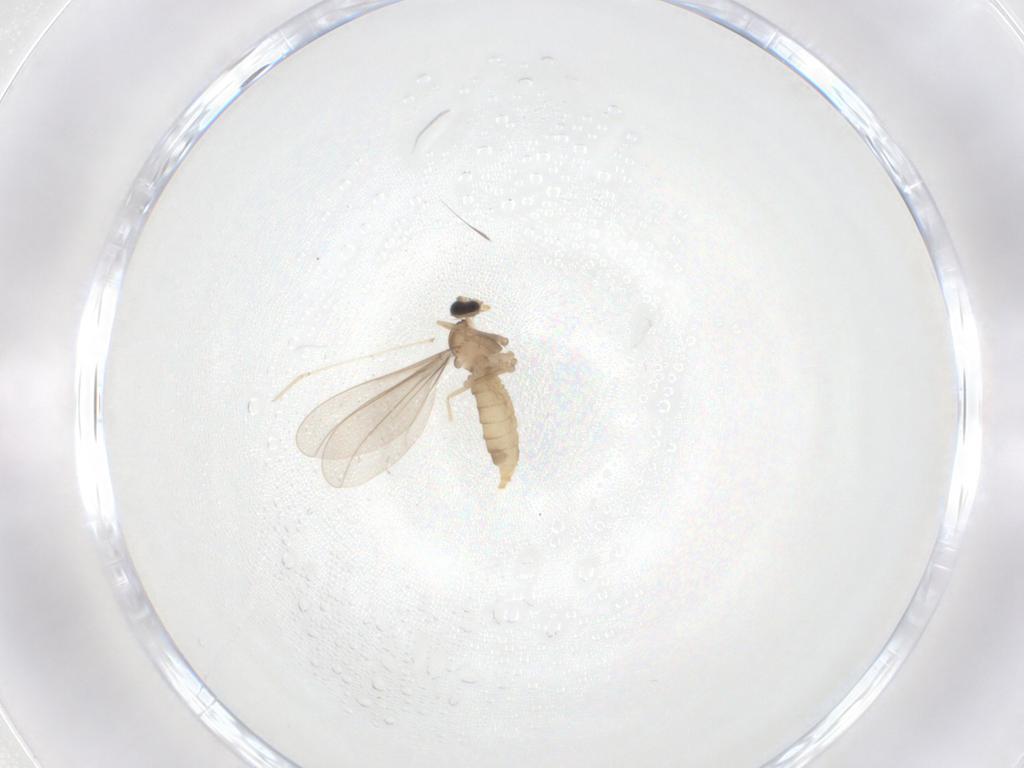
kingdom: Animalia
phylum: Arthropoda
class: Insecta
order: Diptera
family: Cecidomyiidae
